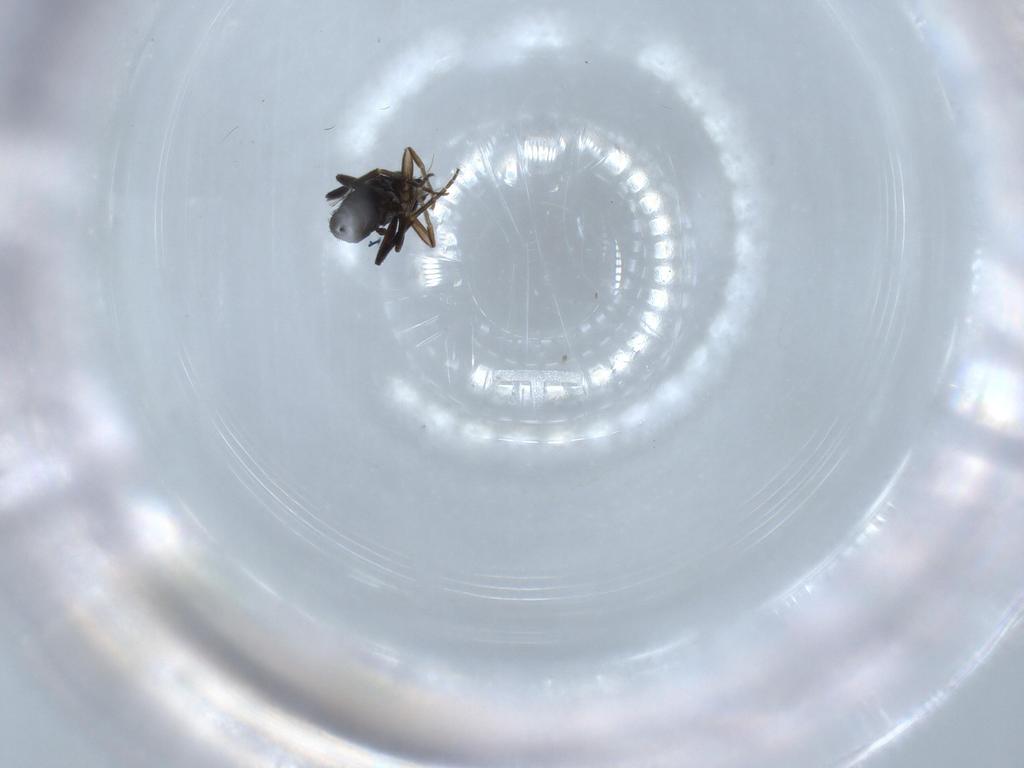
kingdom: Animalia
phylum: Arthropoda
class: Insecta
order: Diptera
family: Phoridae
